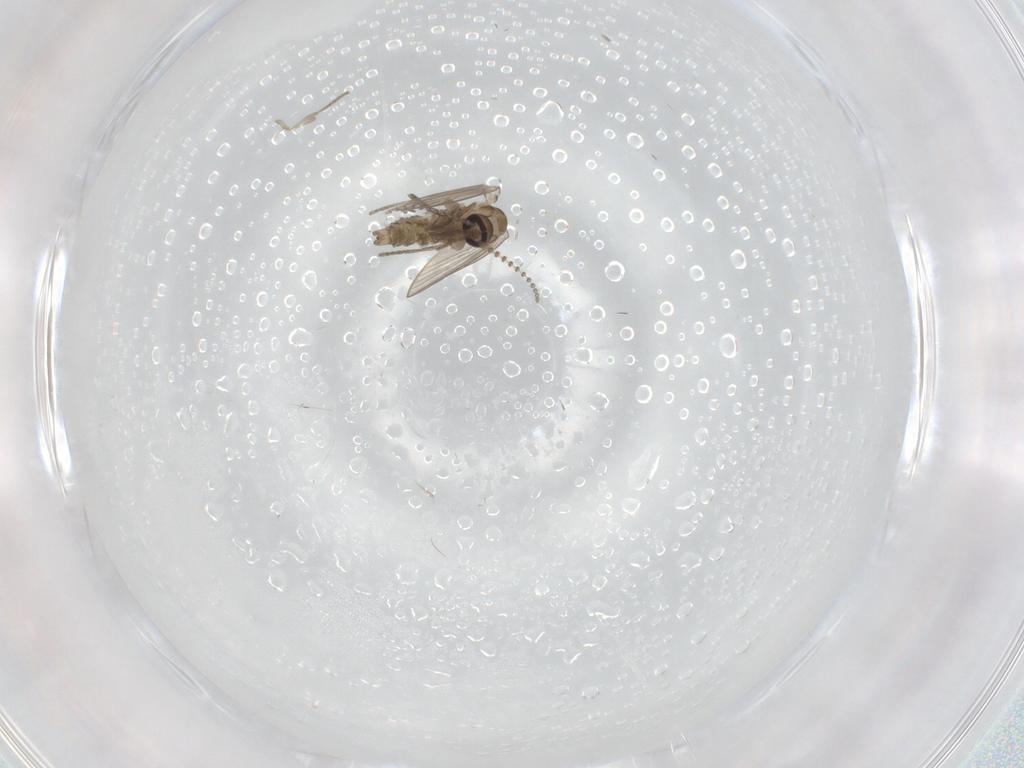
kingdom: Animalia
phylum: Arthropoda
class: Insecta
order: Diptera
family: Psychodidae
